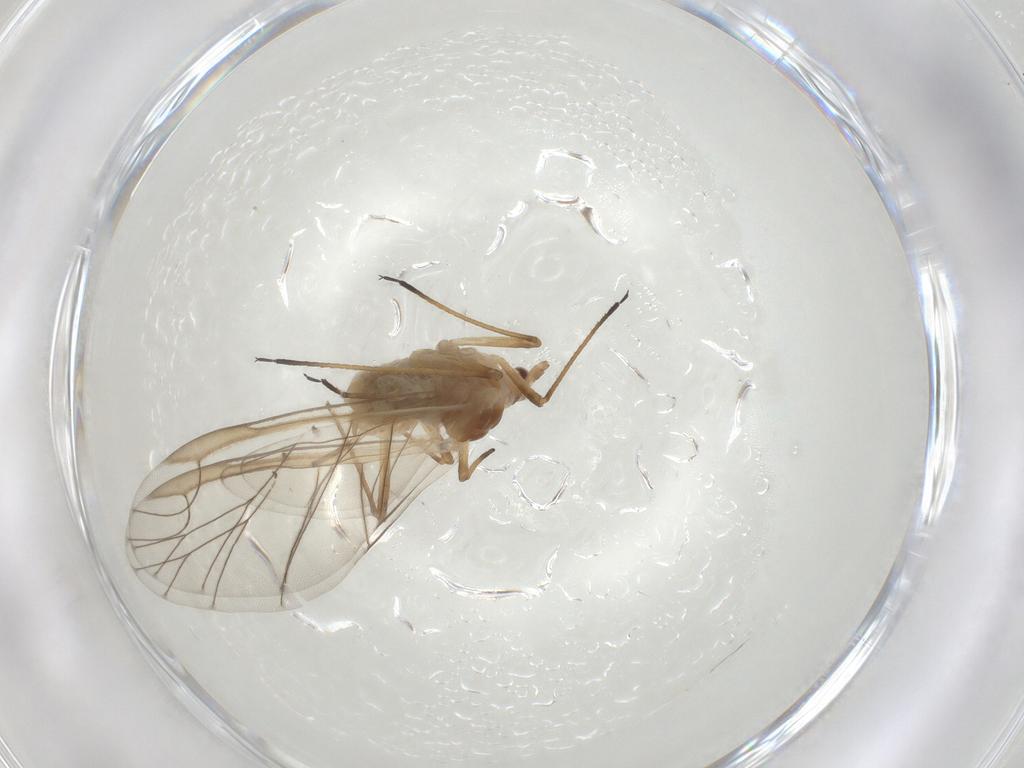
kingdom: Animalia
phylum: Arthropoda
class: Insecta
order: Hemiptera
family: Aphididae
